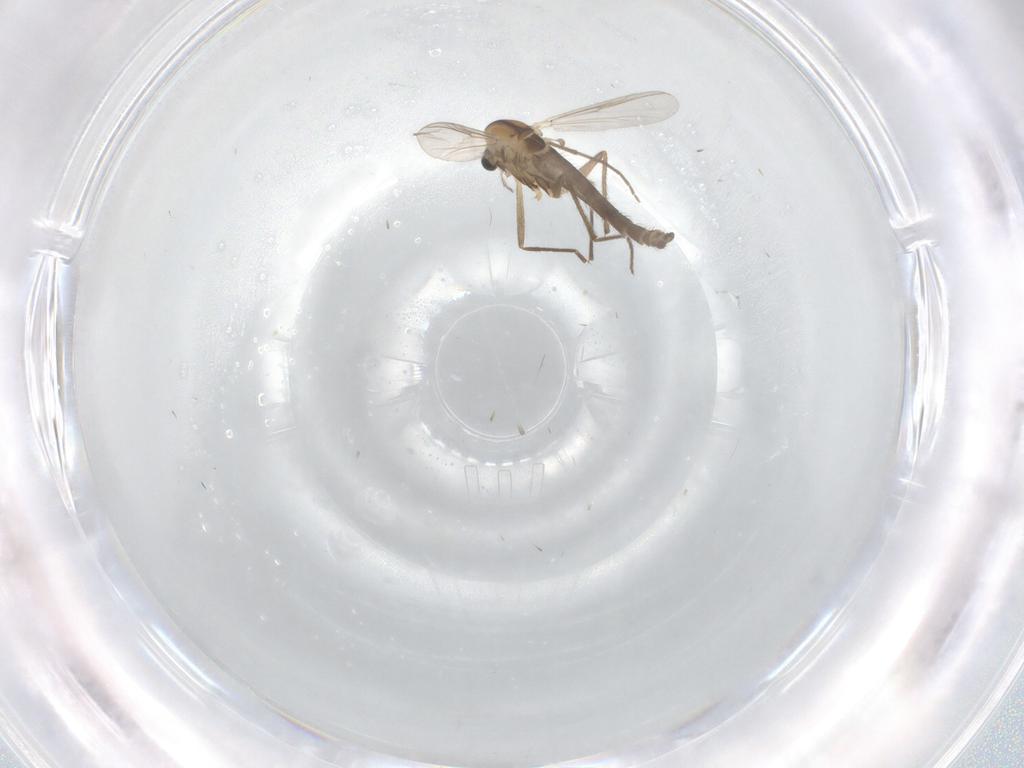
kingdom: Animalia
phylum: Arthropoda
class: Insecta
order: Diptera
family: Chironomidae
